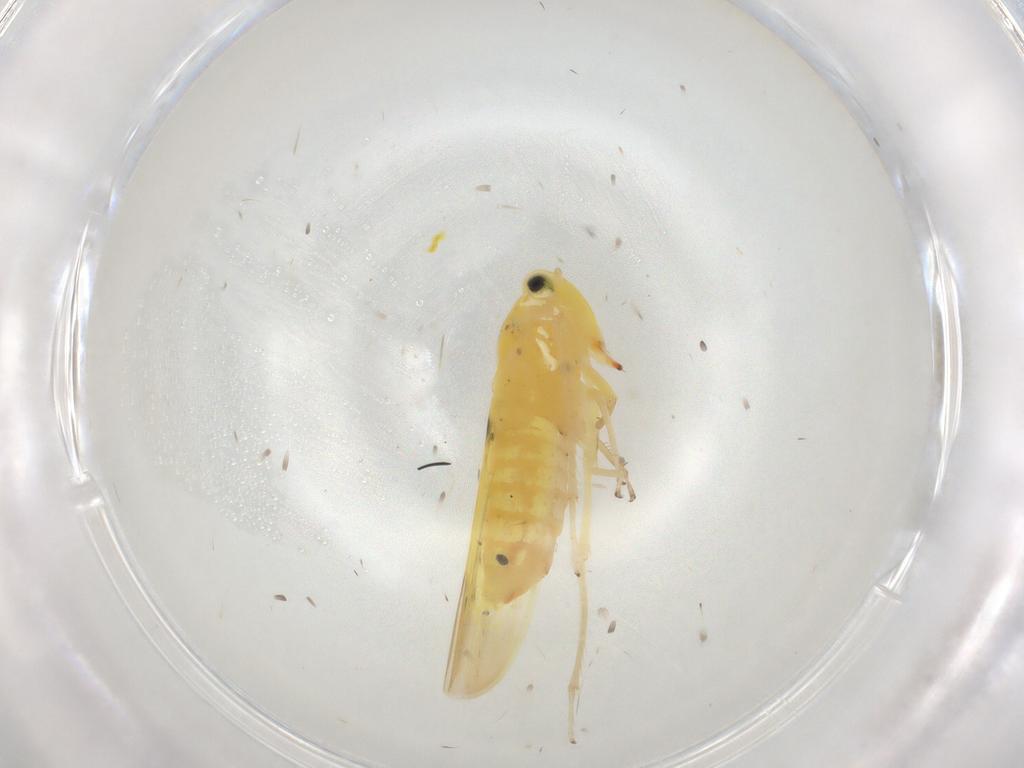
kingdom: Animalia
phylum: Arthropoda
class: Insecta
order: Hemiptera
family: Cicadellidae
